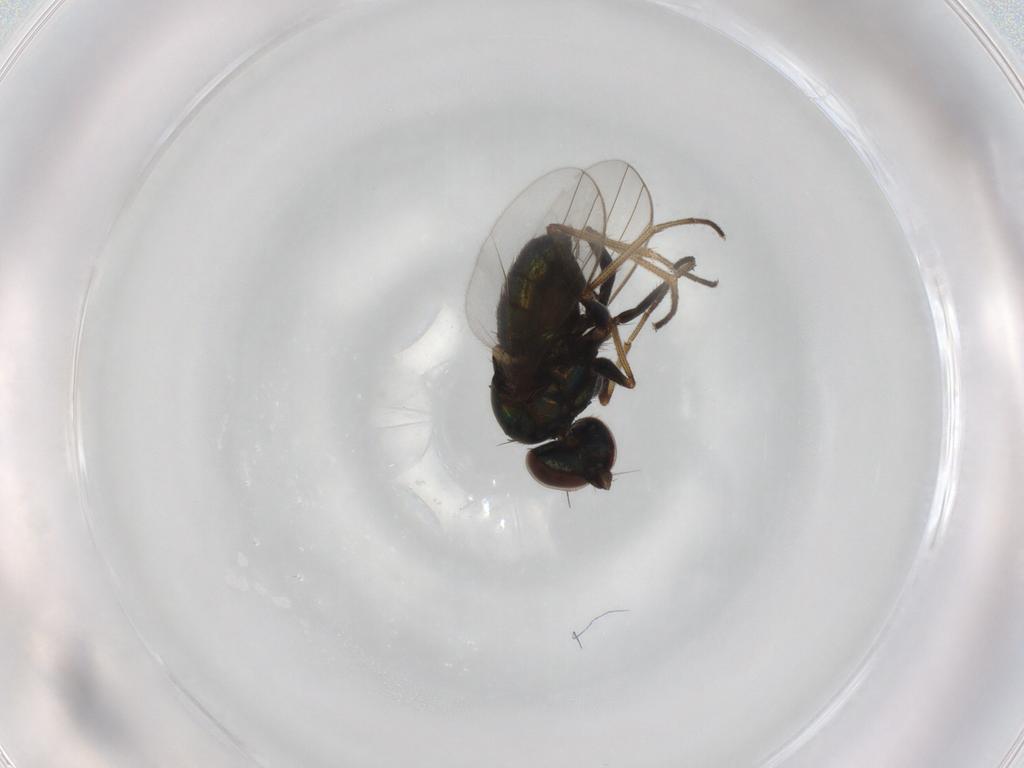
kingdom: Animalia
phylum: Arthropoda
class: Insecta
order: Diptera
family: Dolichopodidae
